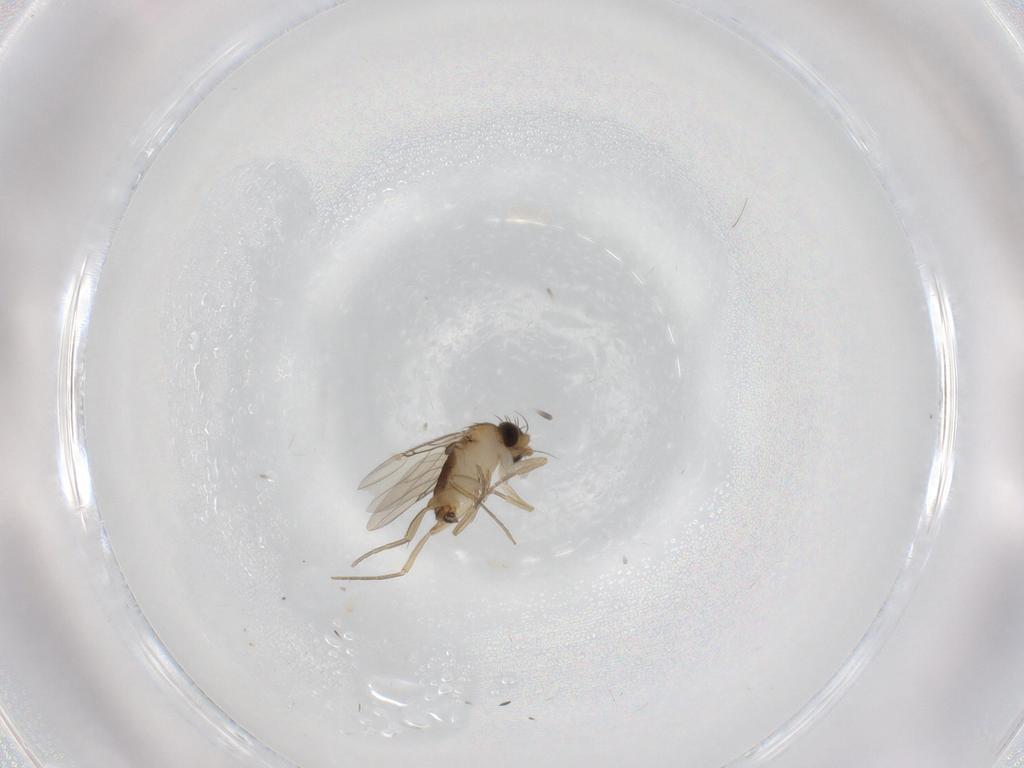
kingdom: Animalia
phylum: Arthropoda
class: Insecta
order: Diptera
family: Phoridae
